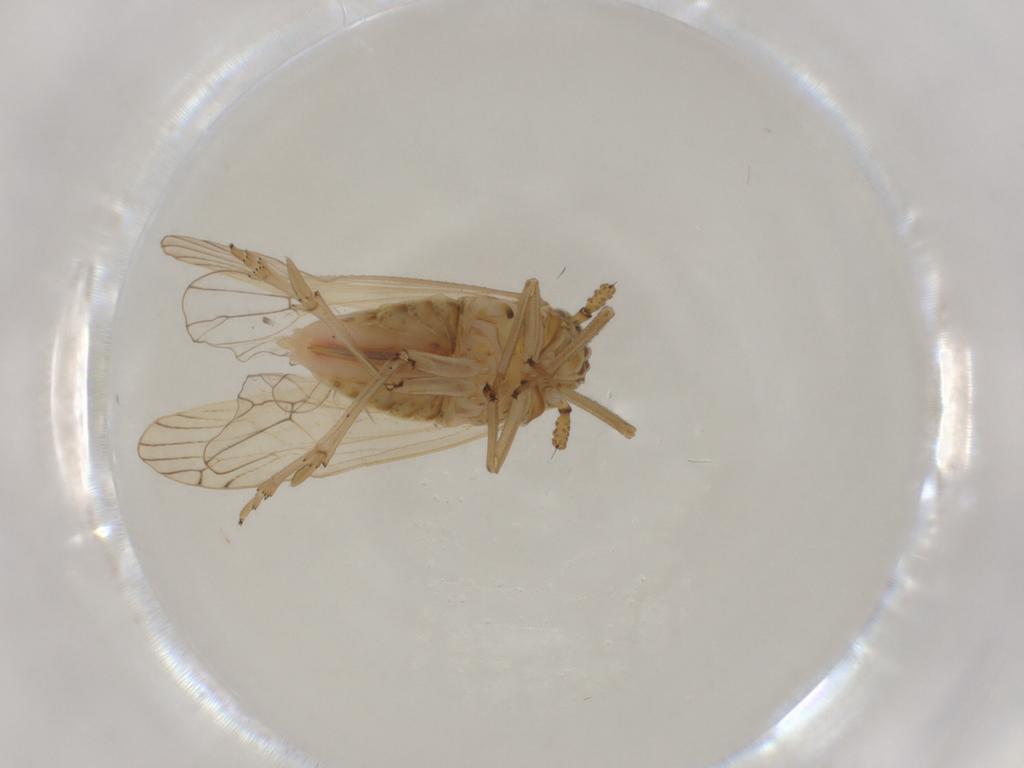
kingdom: Animalia
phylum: Arthropoda
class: Insecta
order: Hemiptera
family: Delphacidae
